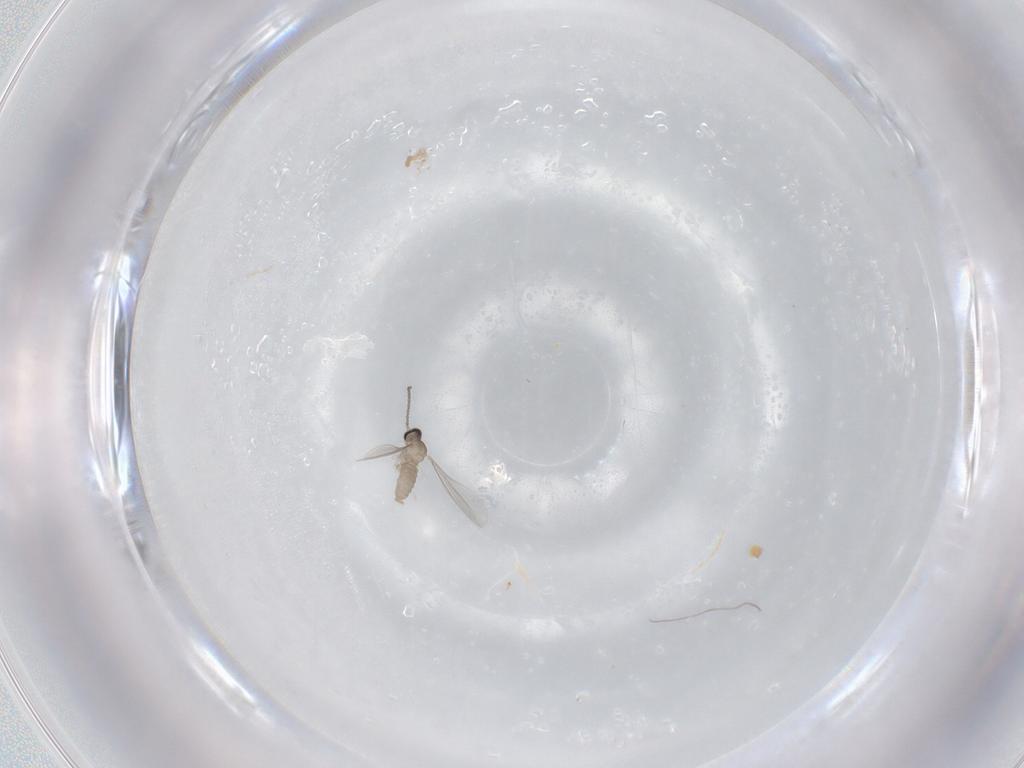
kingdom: Animalia
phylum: Arthropoda
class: Insecta
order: Diptera
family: Cecidomyiidae
